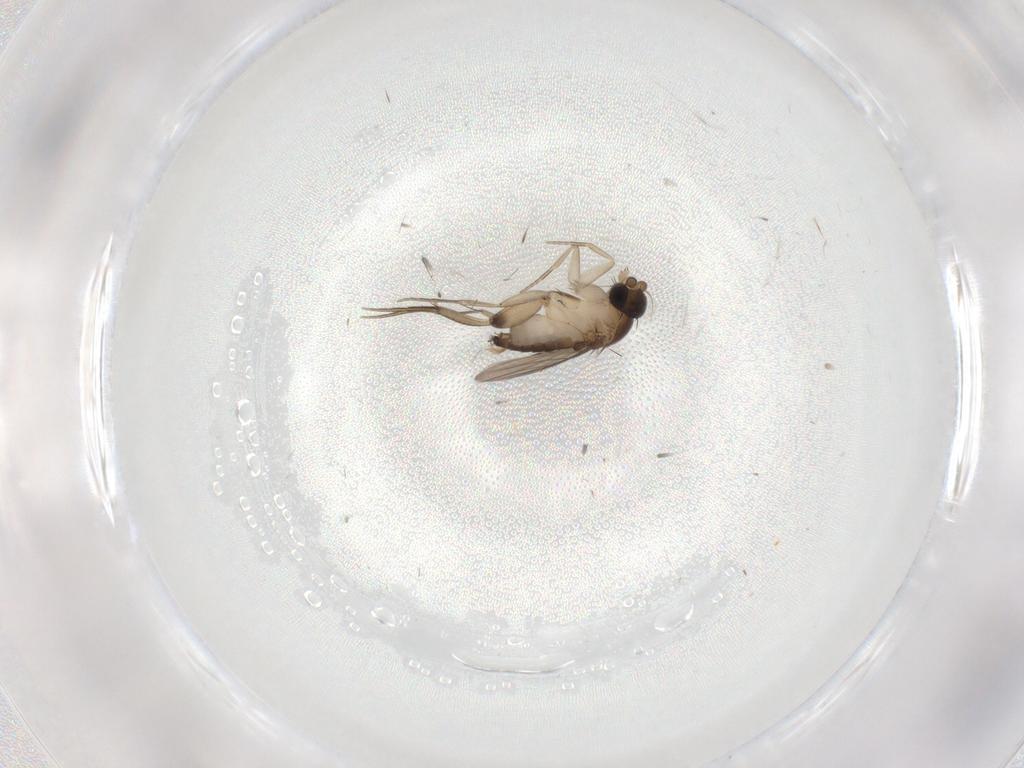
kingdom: Animalia
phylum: Arthropoda
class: Insecta
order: Diptera
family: Phoridae
